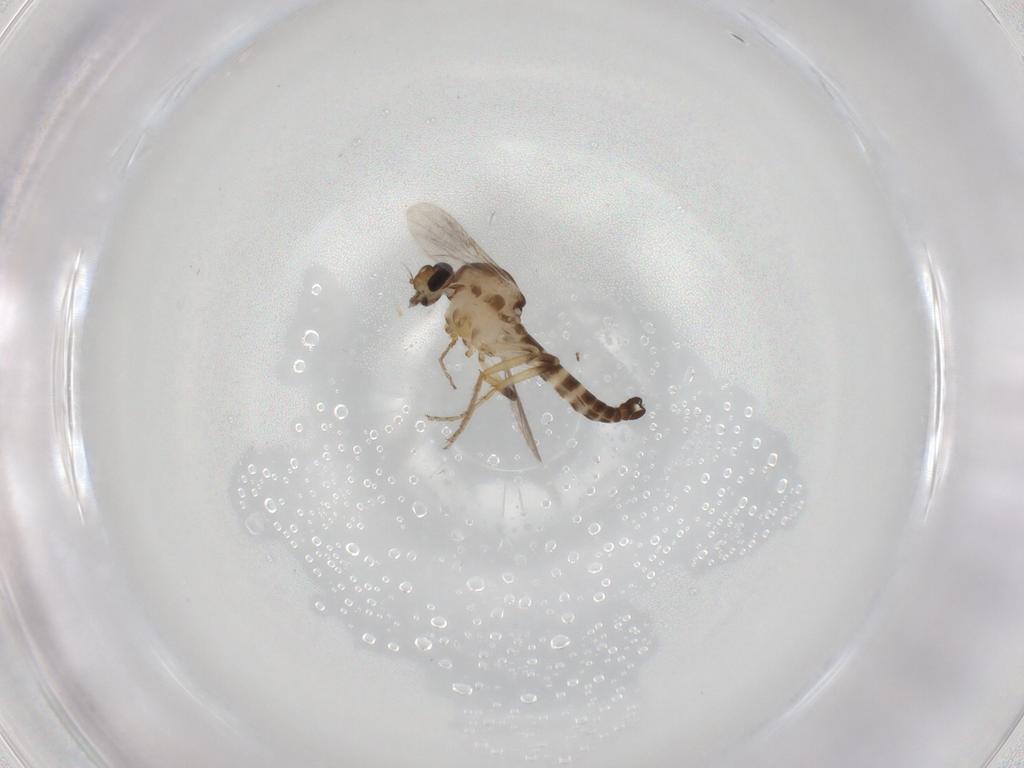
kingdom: Animalia
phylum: Arthropoda
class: Insecta
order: Diptera
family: Ceratopogonidae
